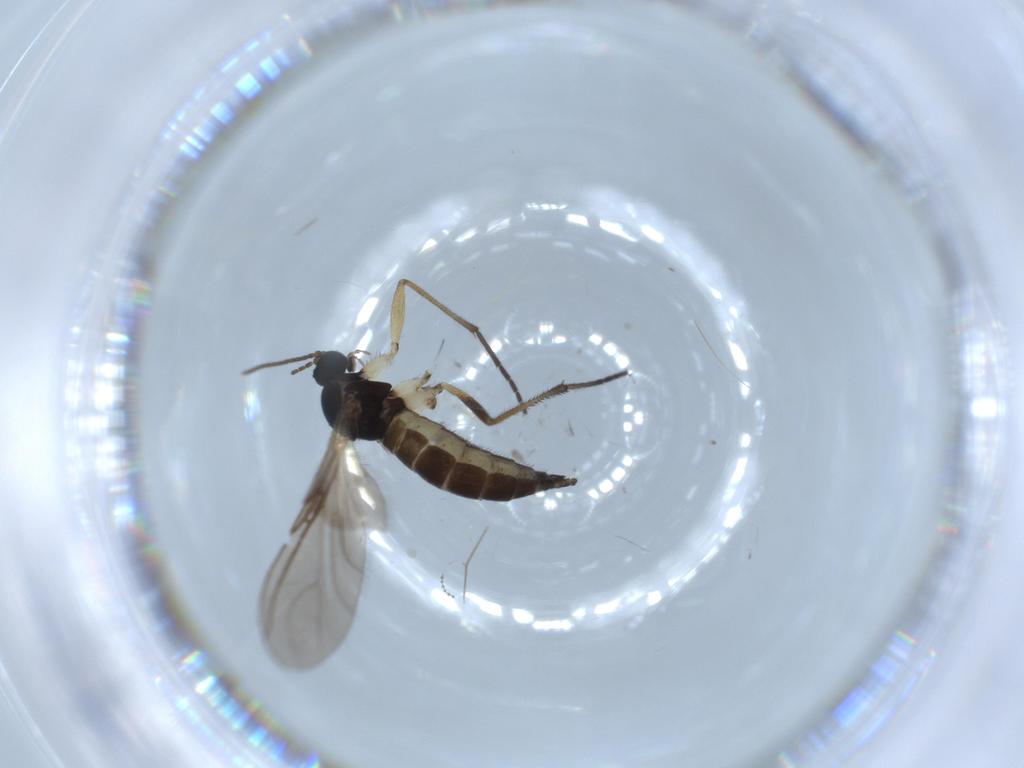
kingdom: Animalia
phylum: Arthropoda
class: Insecta
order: Diptera
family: Sciaridae
